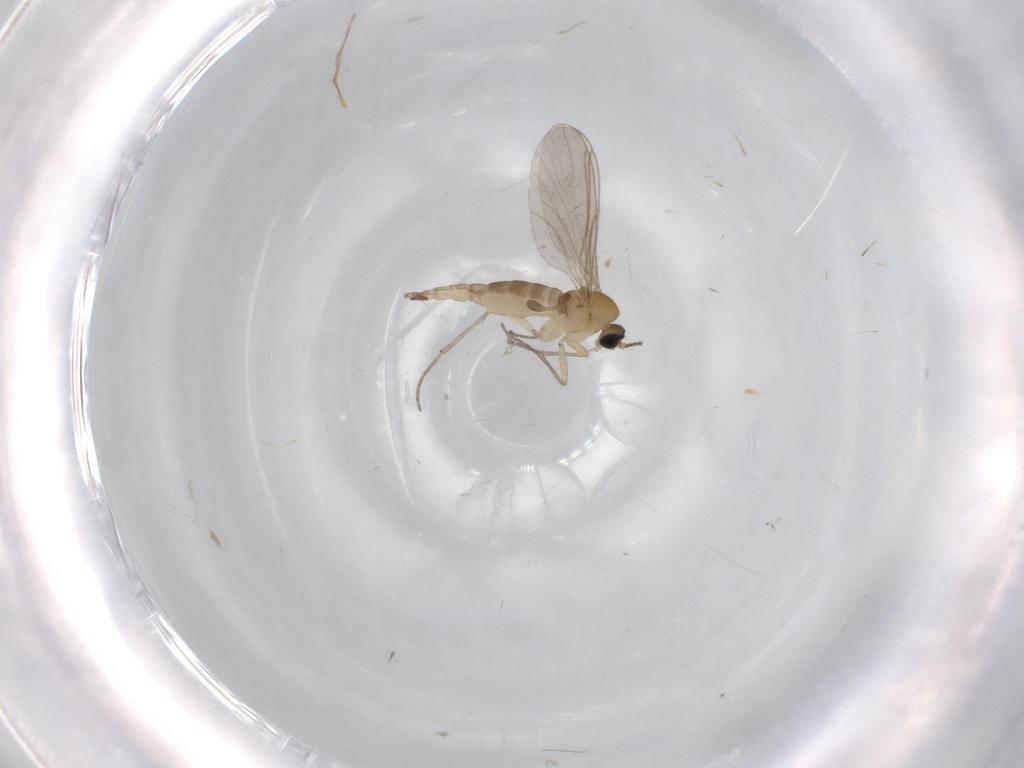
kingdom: Animalia
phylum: Arthropoda
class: Insecta
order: Diptera
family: Sciaridae
